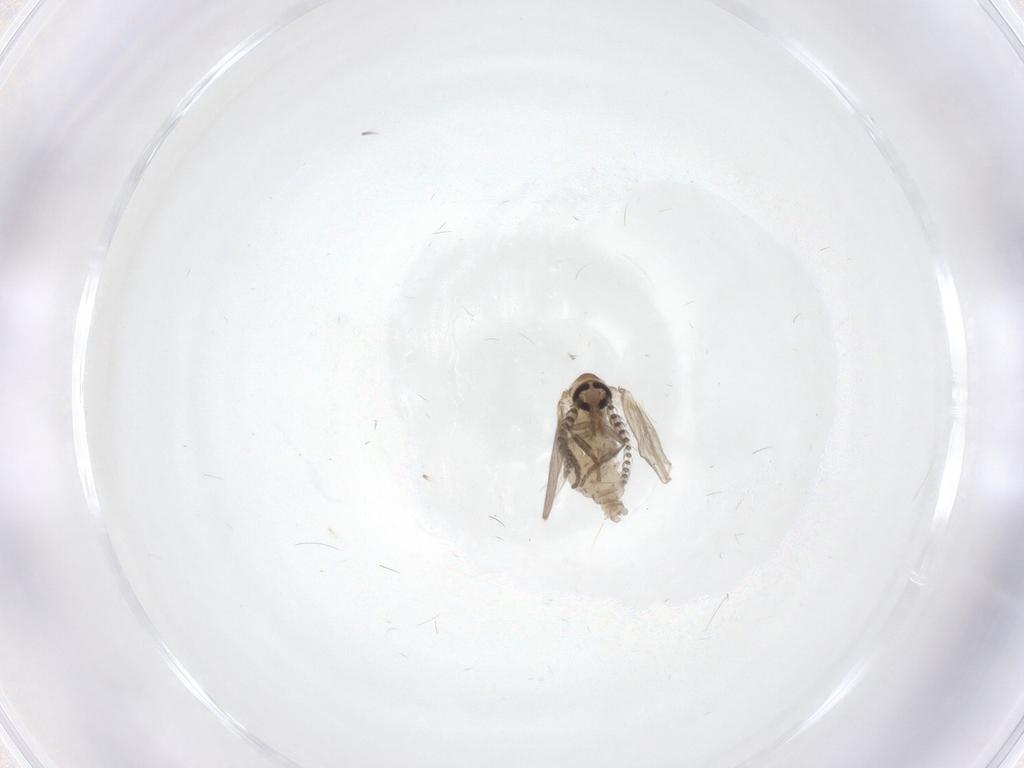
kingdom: Animalia
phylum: Arthropoda
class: Insecta
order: Diptera
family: Psychodidae
